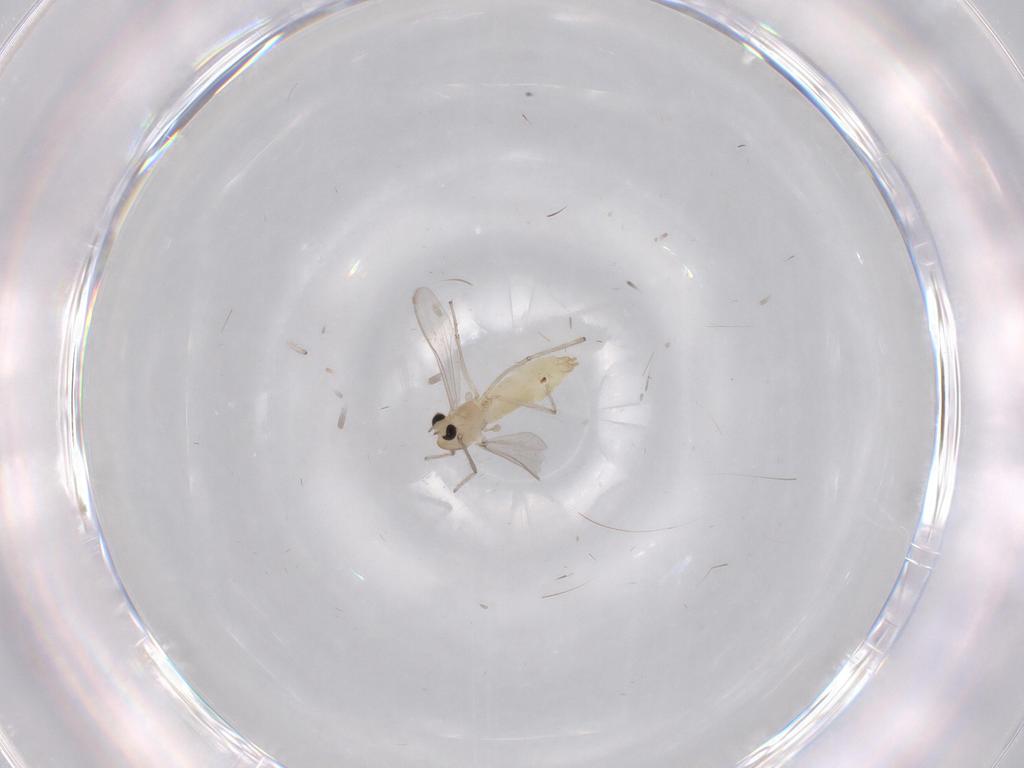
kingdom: Animalia
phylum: Arthropoda
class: Insecta
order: Diptera
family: Chironomidae
